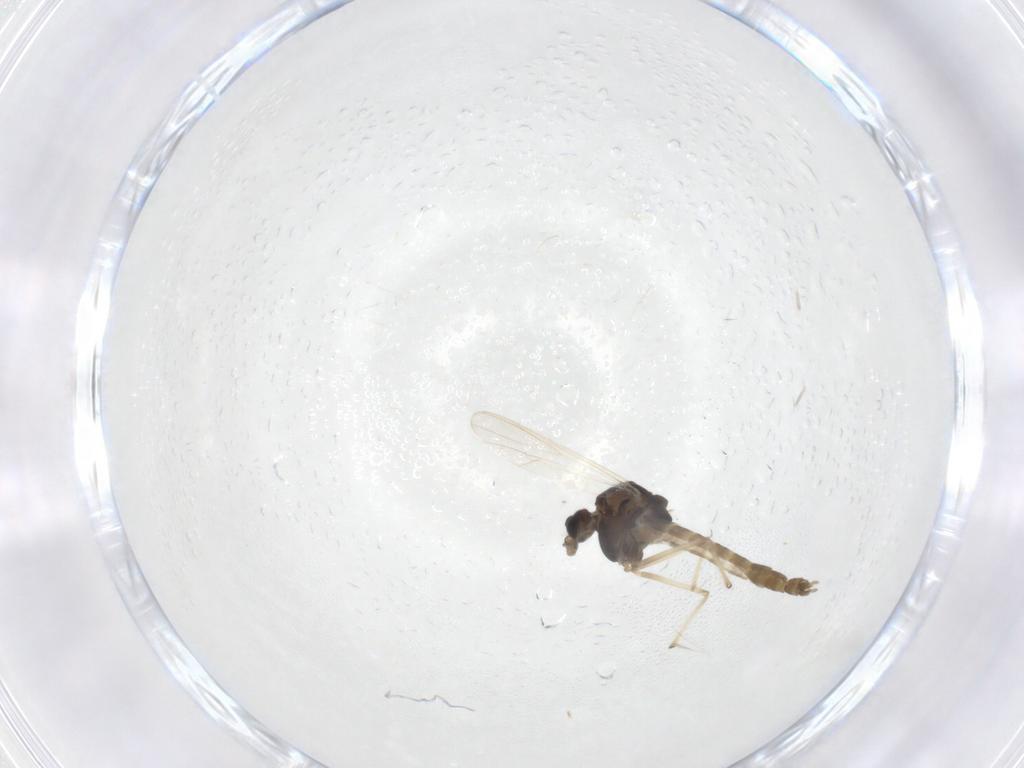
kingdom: Animalia
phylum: Arthropoda
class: Insecta
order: Diptera
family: Chironomidae
